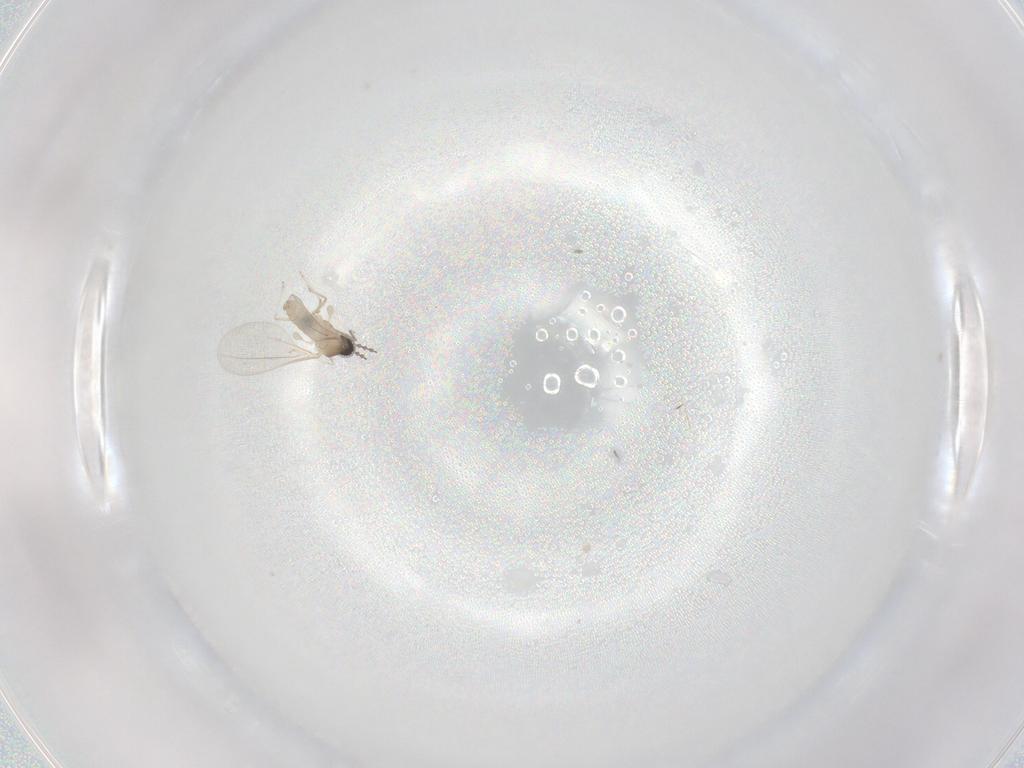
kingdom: Animalia
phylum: Arthropoda
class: Insecta
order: Diptera
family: Cecidomyiidae
